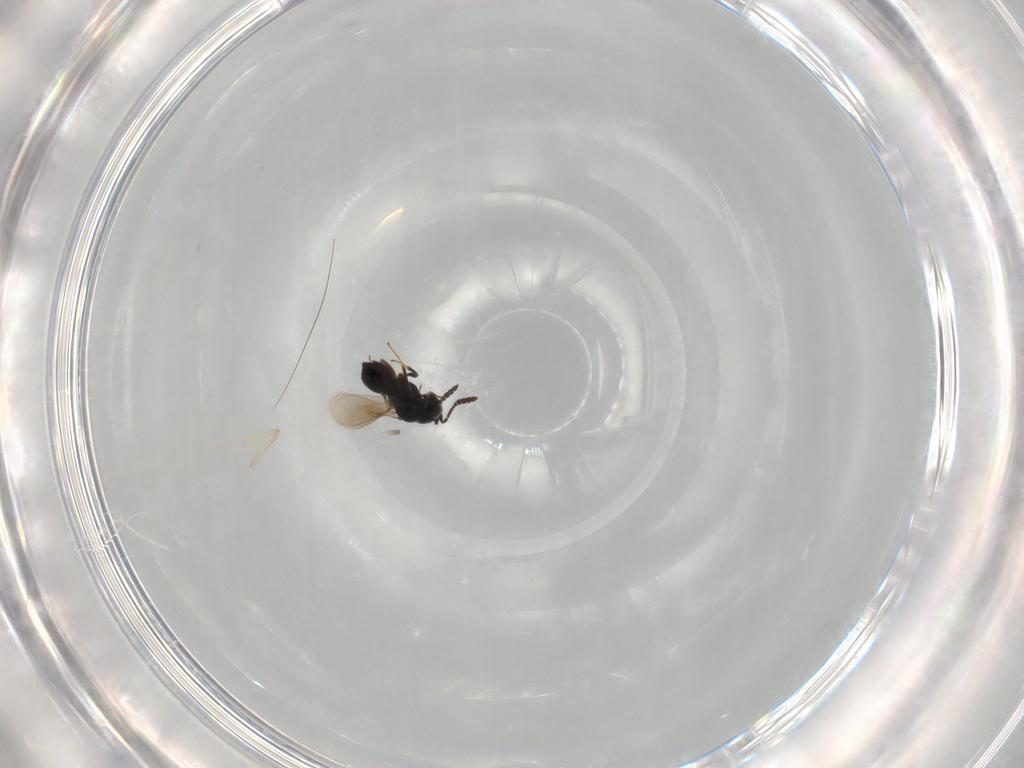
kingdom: Animalia
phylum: Arthropoda
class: Insecta
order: Hymenoptera
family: Scelionidae
